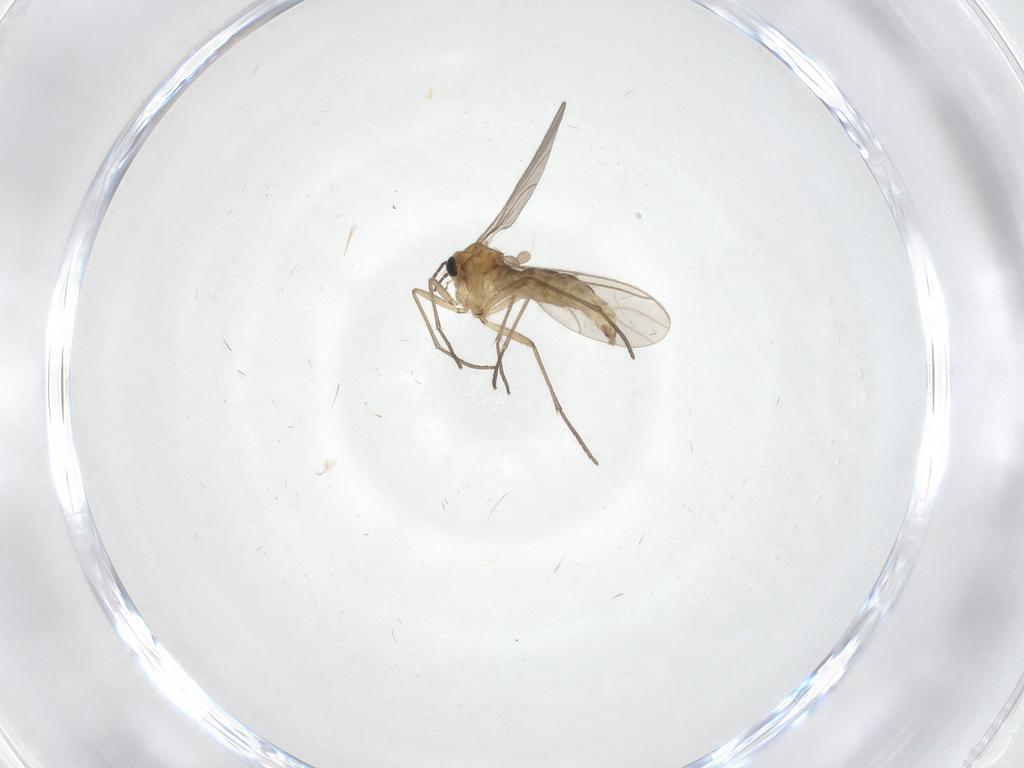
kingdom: Animalia
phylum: Arthropoda
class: Insecta
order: Diptera
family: Sciaridae
